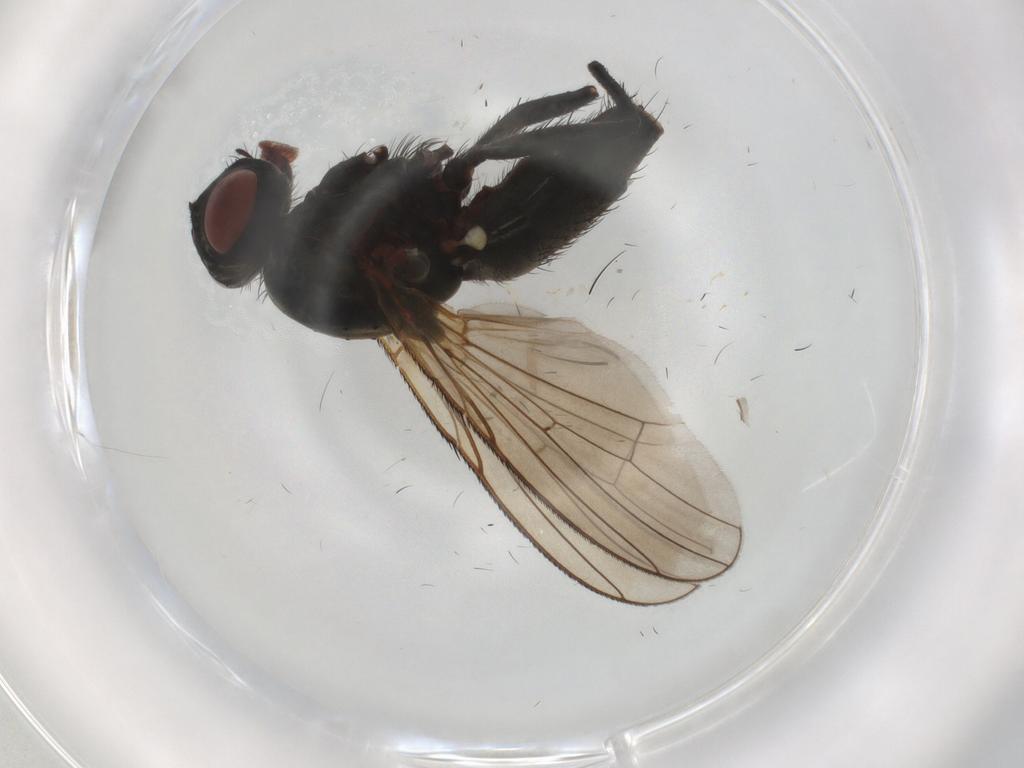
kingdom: Animalia
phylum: Arthropoda
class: Insecta
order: Diptera
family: Anthomyiidae
